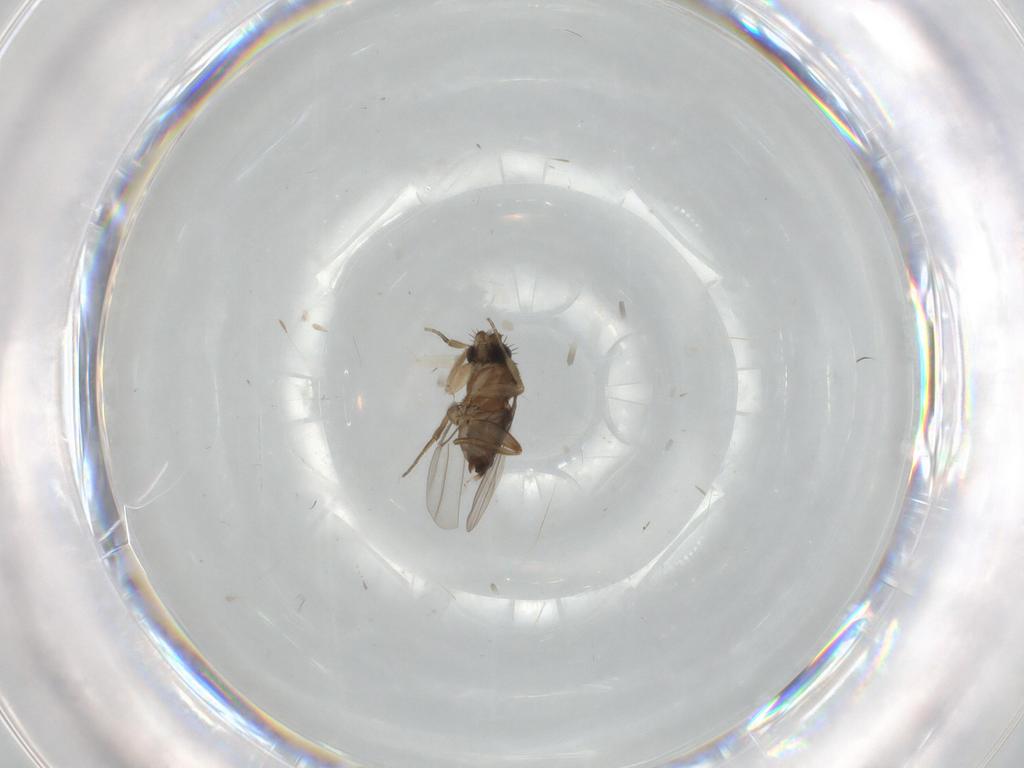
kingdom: Animalia
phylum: Arthropoda
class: Insecta
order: Diptera
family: Phoridae
